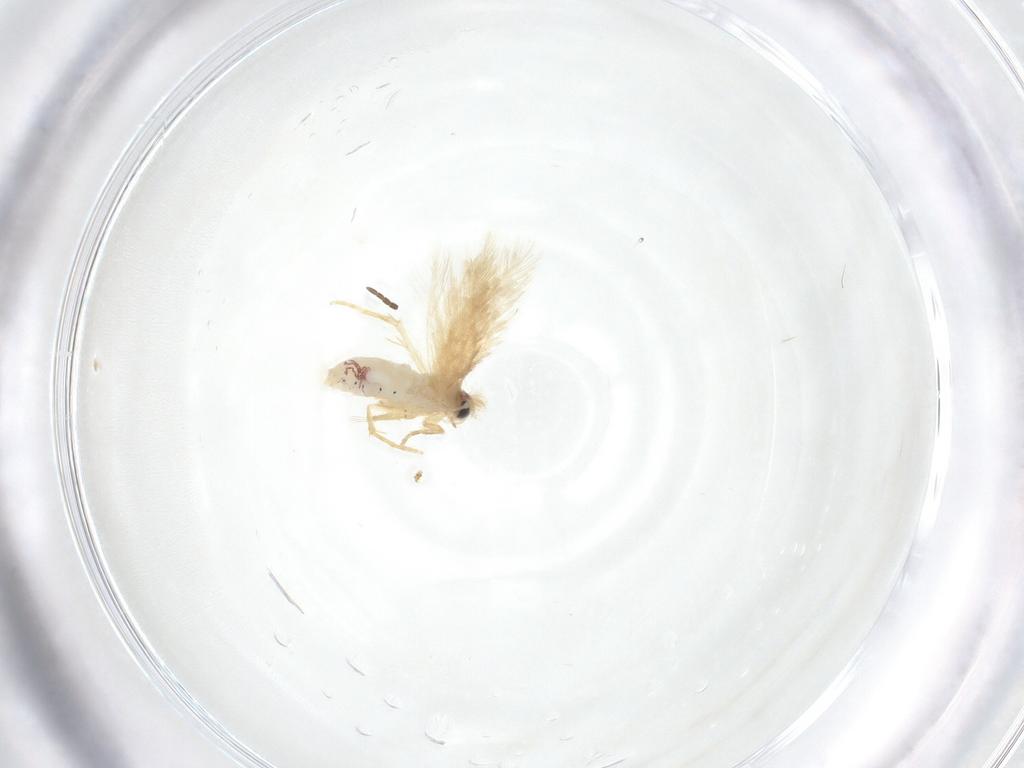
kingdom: Animalia
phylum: Arthropoda
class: Insecta
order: Lepidoptera
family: Nepticulidae
